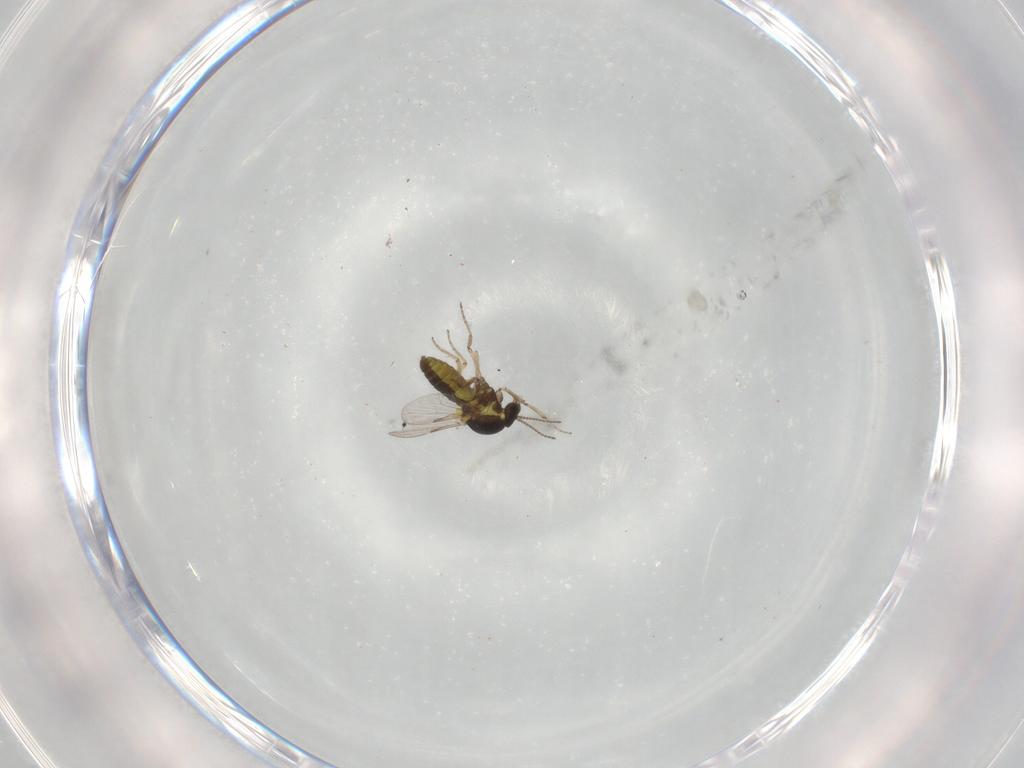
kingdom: Animalia
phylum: Arthropoda
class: Insecta
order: Diptera
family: Ceratopogonidae
